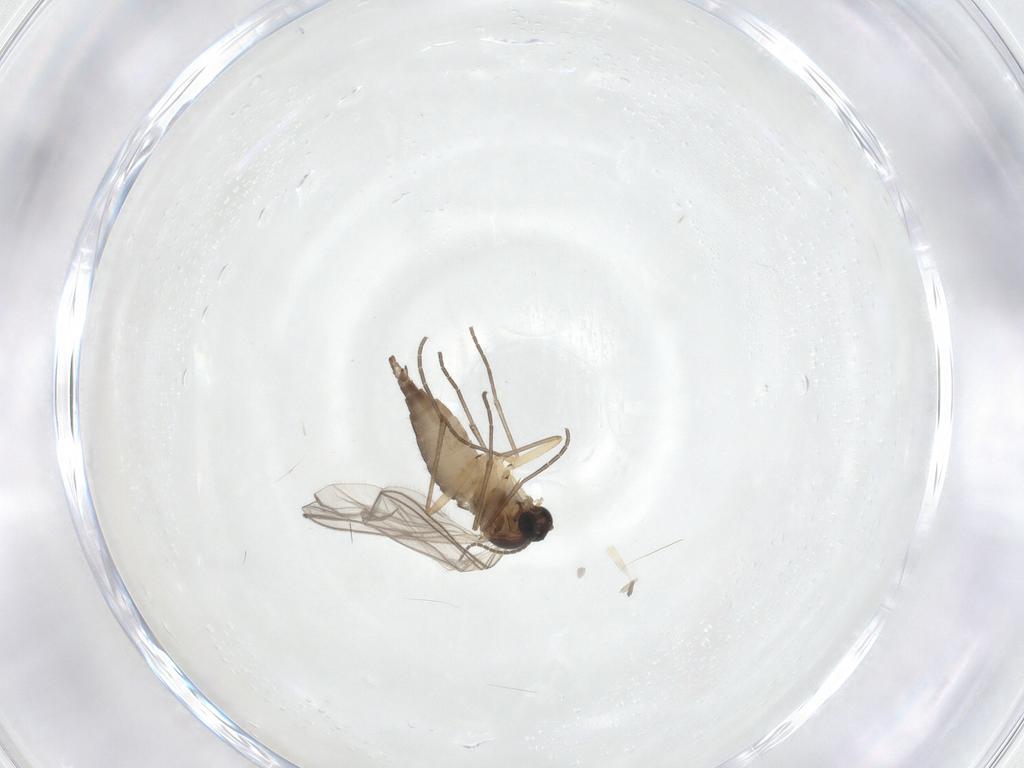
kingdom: Animalia
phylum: Arthropoda
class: Insecta
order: Diptera
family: Sciaridae
